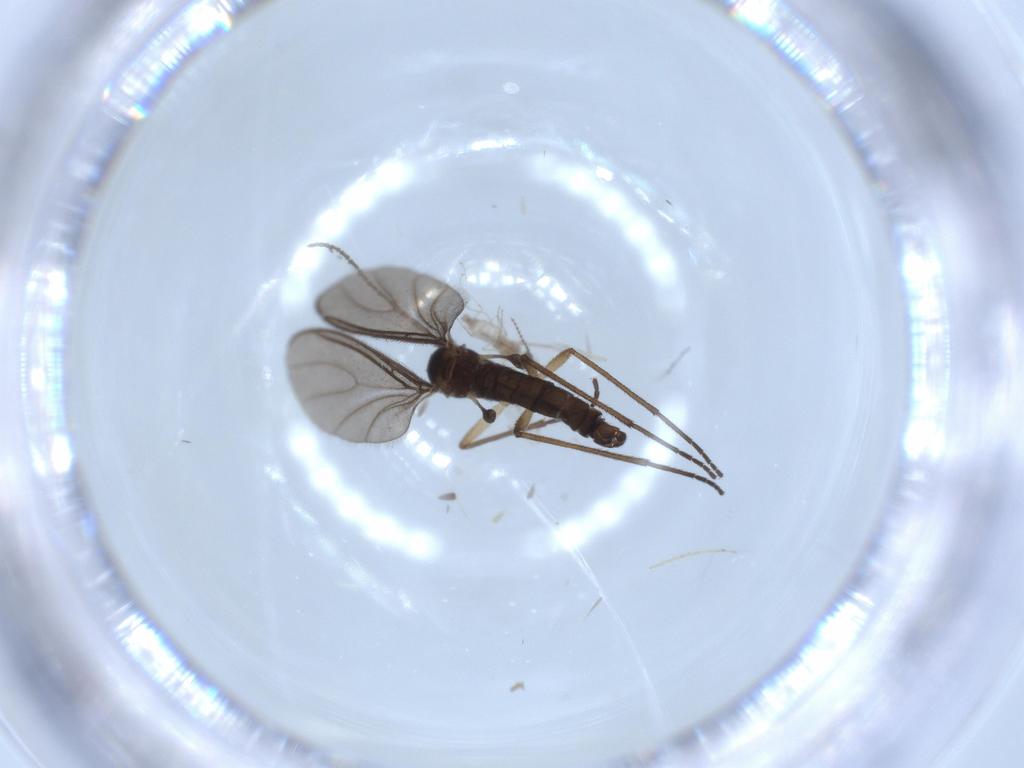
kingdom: Animalia
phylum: Arthropoda
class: Insecta
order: Diptera
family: Sciaridae
